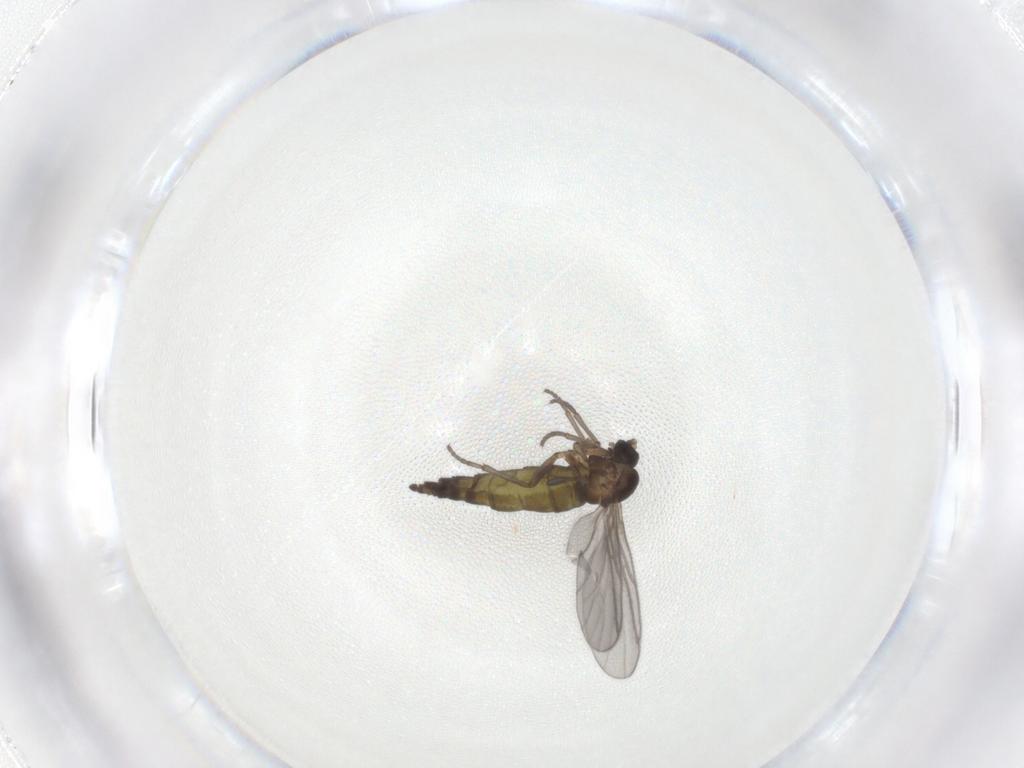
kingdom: Animalia
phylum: Arthropoda
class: Insecta
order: Diptera
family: Sciaridae
